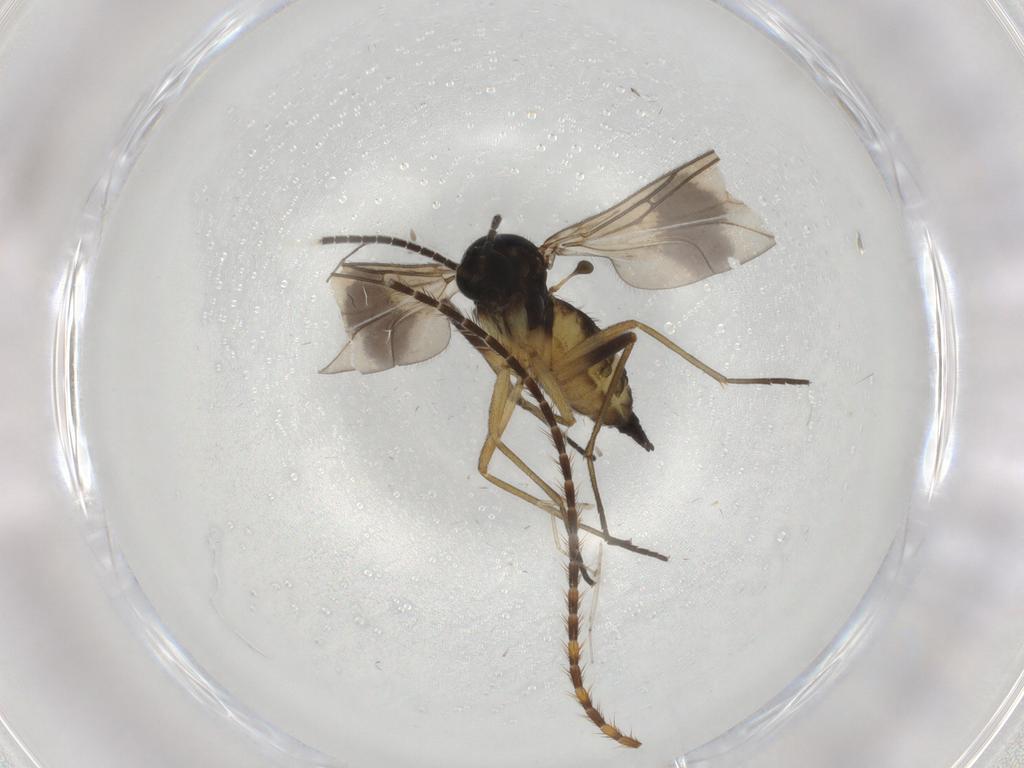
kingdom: Animalia
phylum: Arthropoda
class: Insecta
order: Diptera
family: Sciaridae
